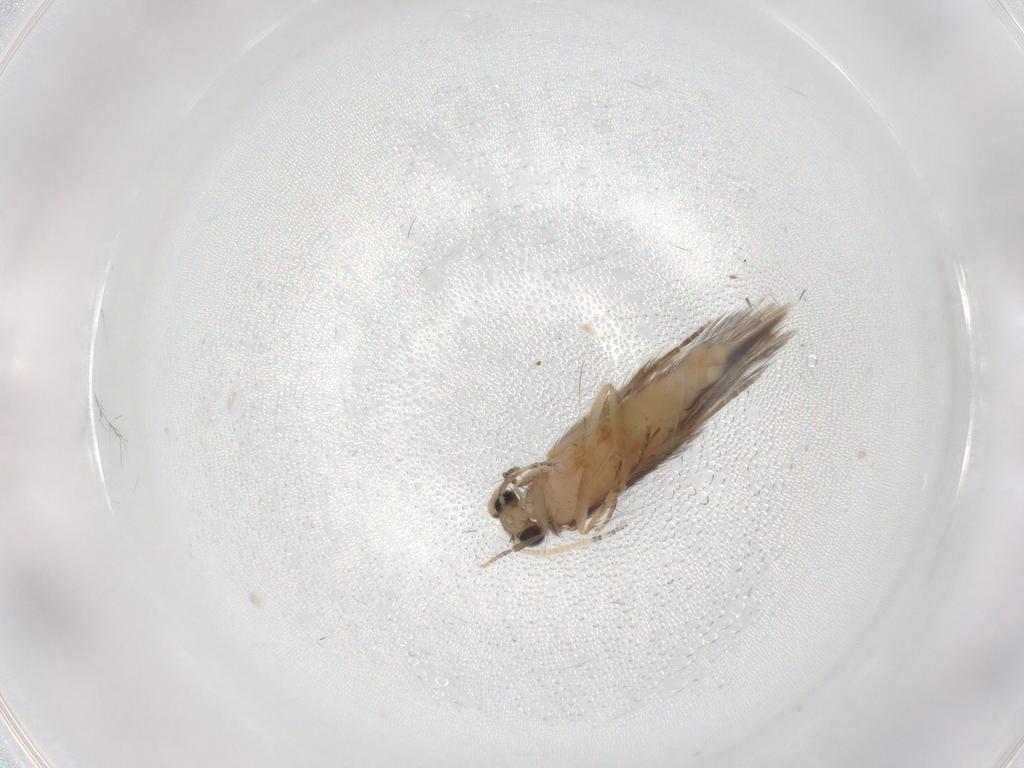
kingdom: Animalia
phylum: Arthropoda
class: Insecta
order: Trichoptera
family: Hydroptilidae
